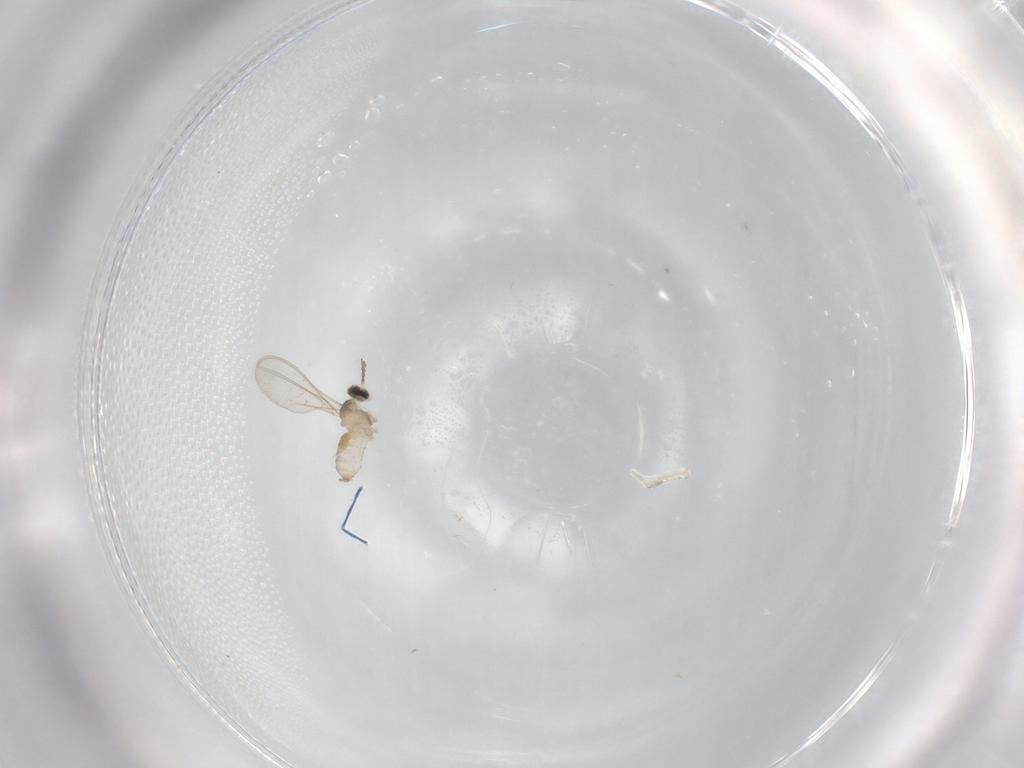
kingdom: Animalia
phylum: Arthropoda
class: Insecta
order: Diptera
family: Cecidomyiidae
